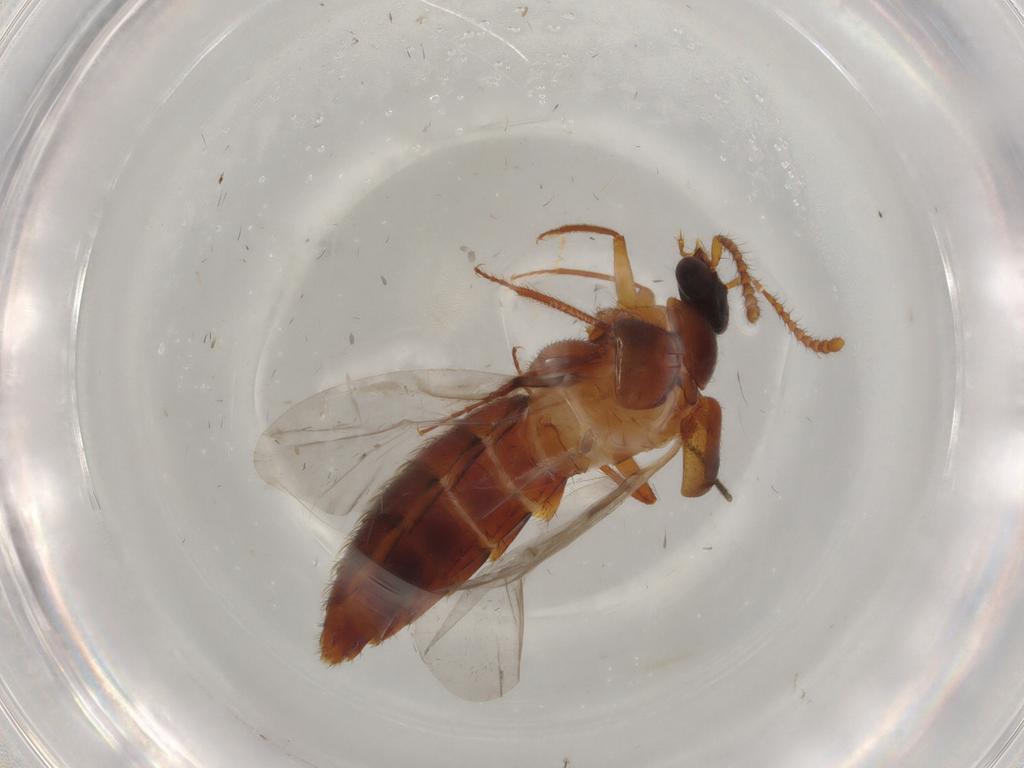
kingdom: Animalia
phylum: Arthropoda
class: Insecta
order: Coleoptera
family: Staphylinidae
